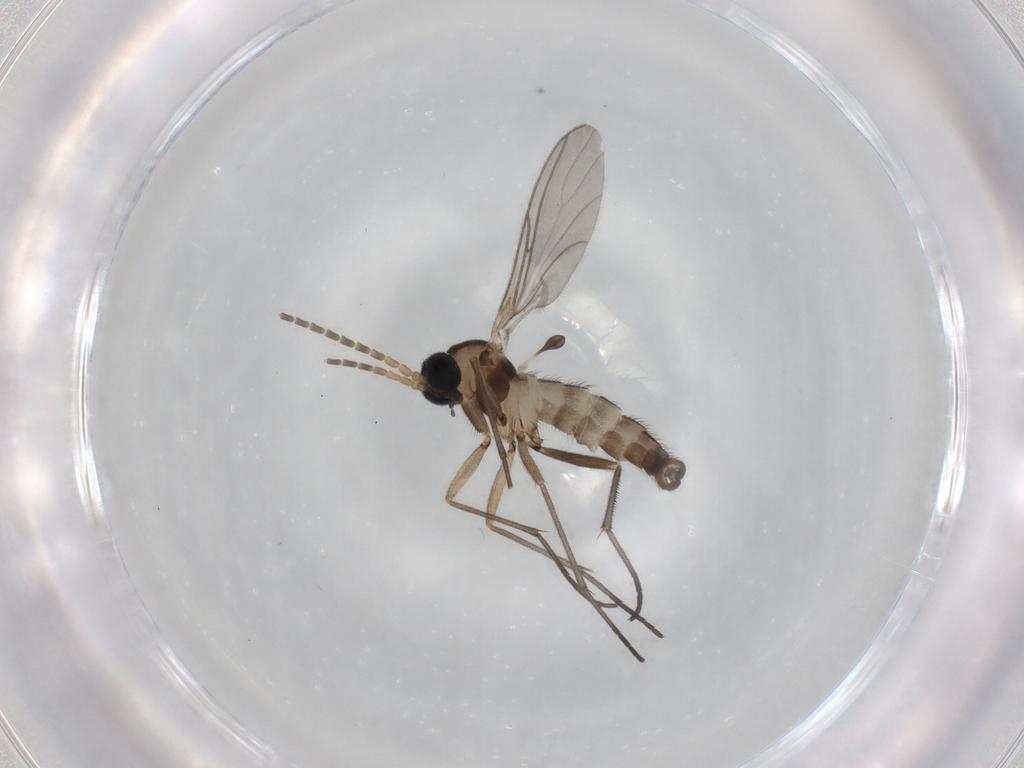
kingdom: Animalia
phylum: Arthropoda
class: Insecta
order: Diptera
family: Sciaridae
